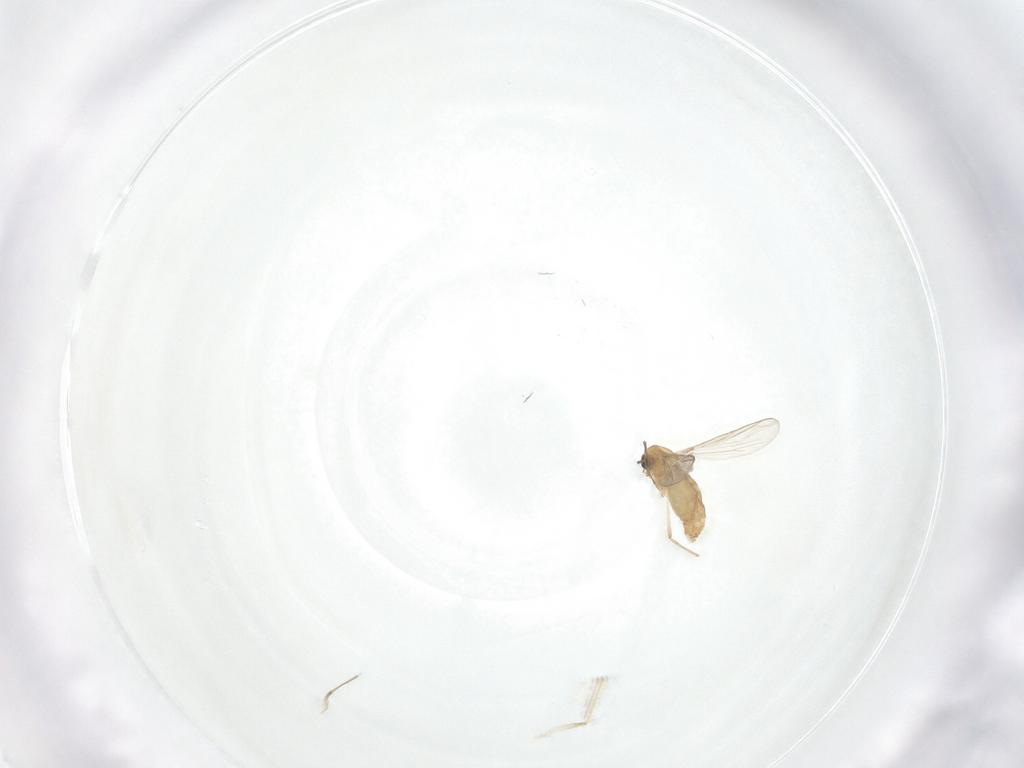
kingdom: Animalia
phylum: Arthropoda
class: Insecta
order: Diptera
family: Chironomidae
